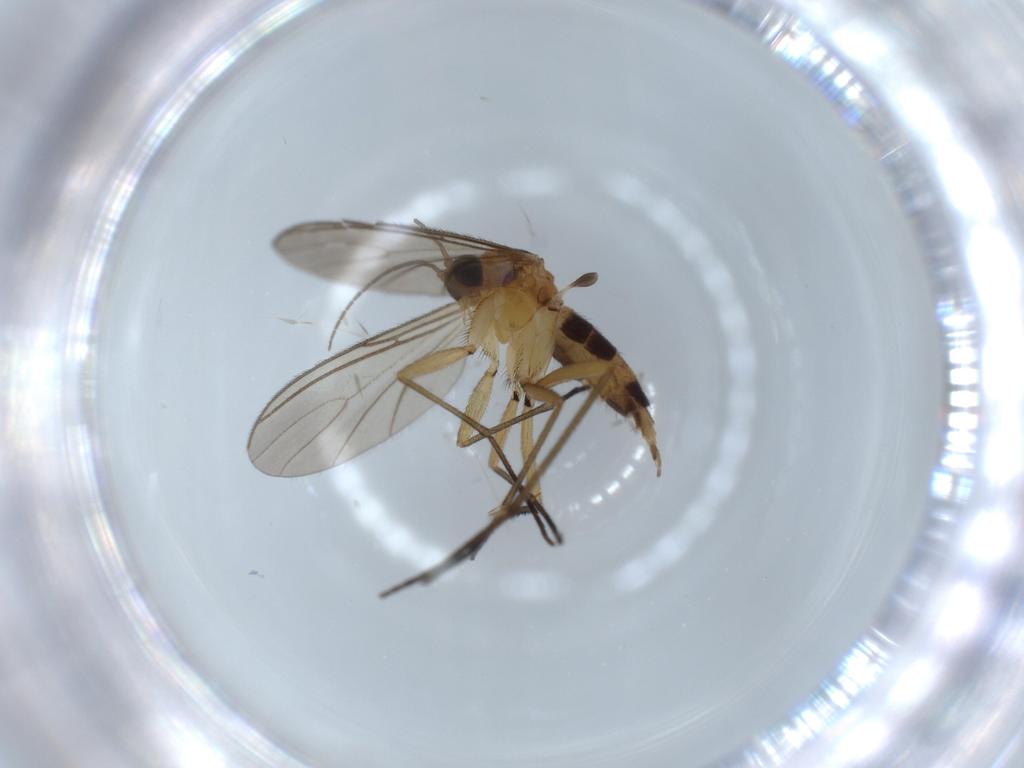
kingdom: Animalia
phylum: Arthropoda
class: Insecta
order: Diptera
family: Sciaridae
